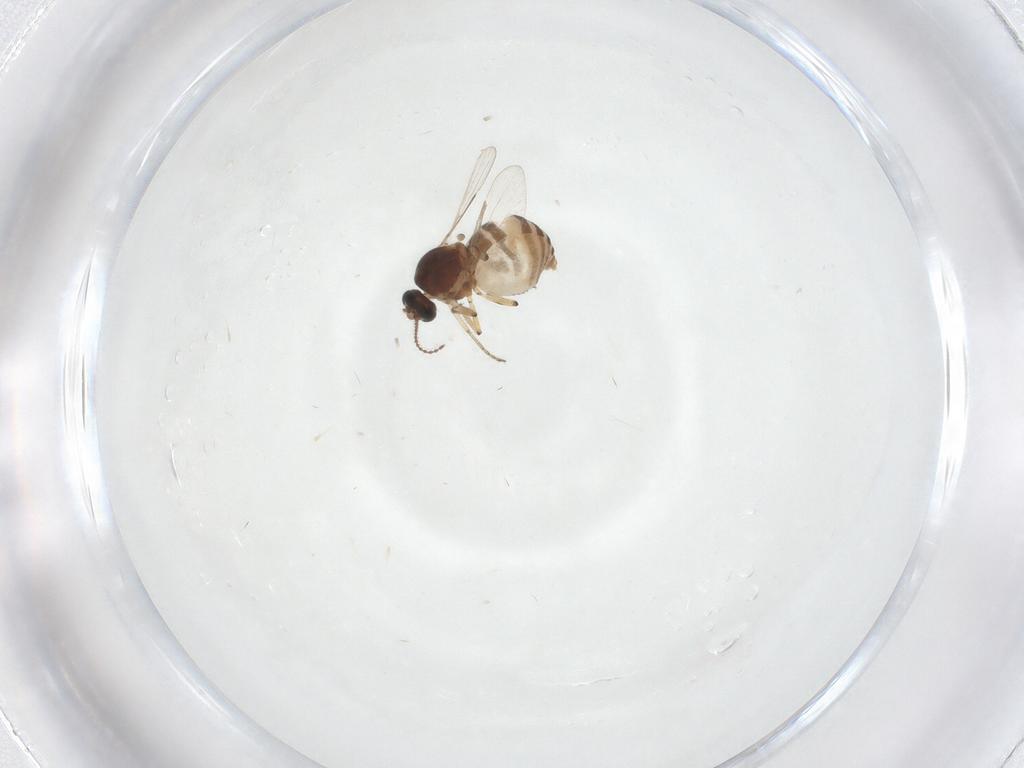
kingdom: Animalia
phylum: Arthropoda
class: Insecta
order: Diptera
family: Ceratopogonidae
